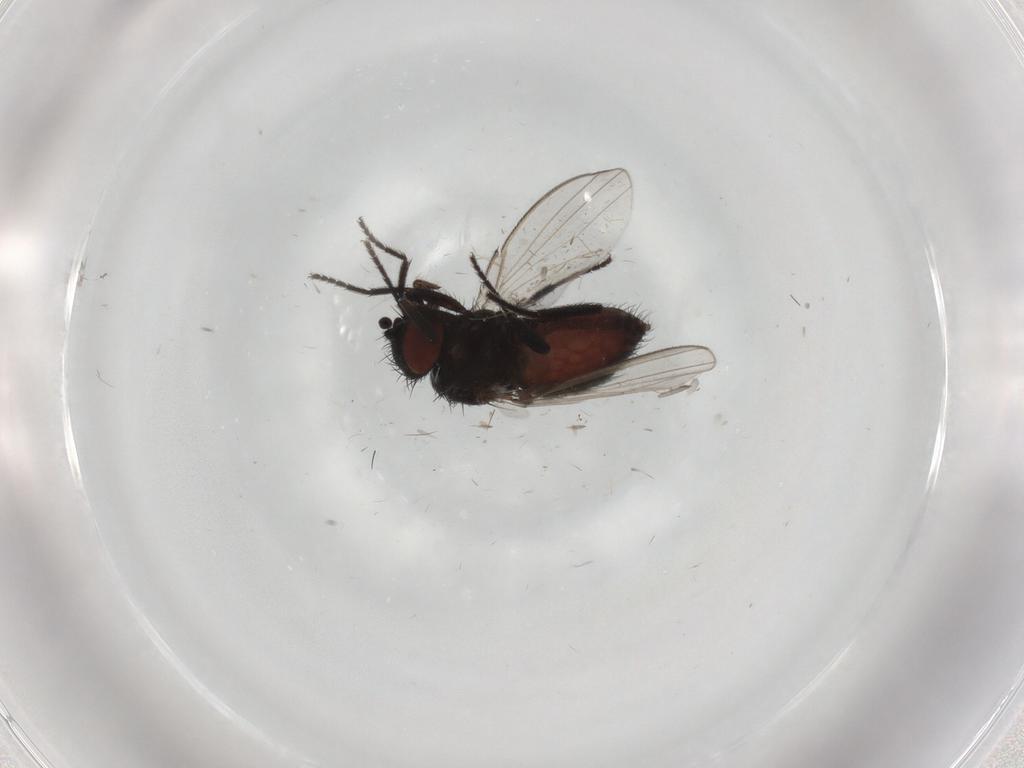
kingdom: Animalia
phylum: Arthropoda
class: Insecta
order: Diptera
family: Milichiidae
